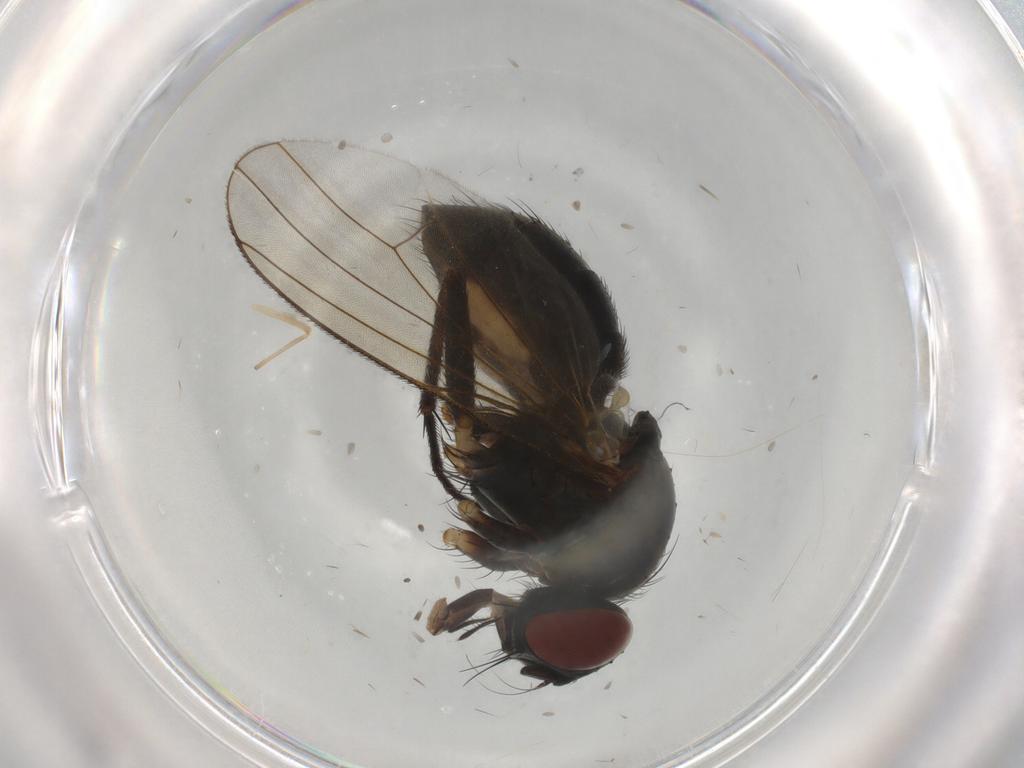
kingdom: Animalia
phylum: Arthropoda
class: Insecta
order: Diptera
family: Muscidae
